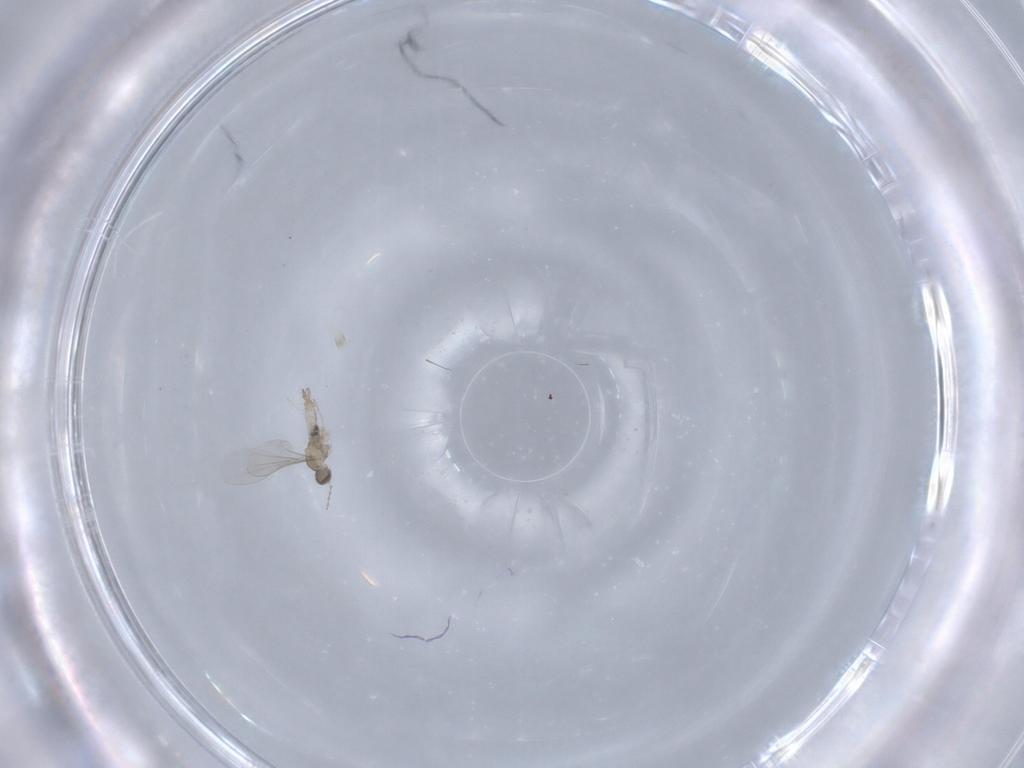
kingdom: Animalia
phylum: Arthropoda
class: Insecta
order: Diptera
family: Cecidomyiidae
